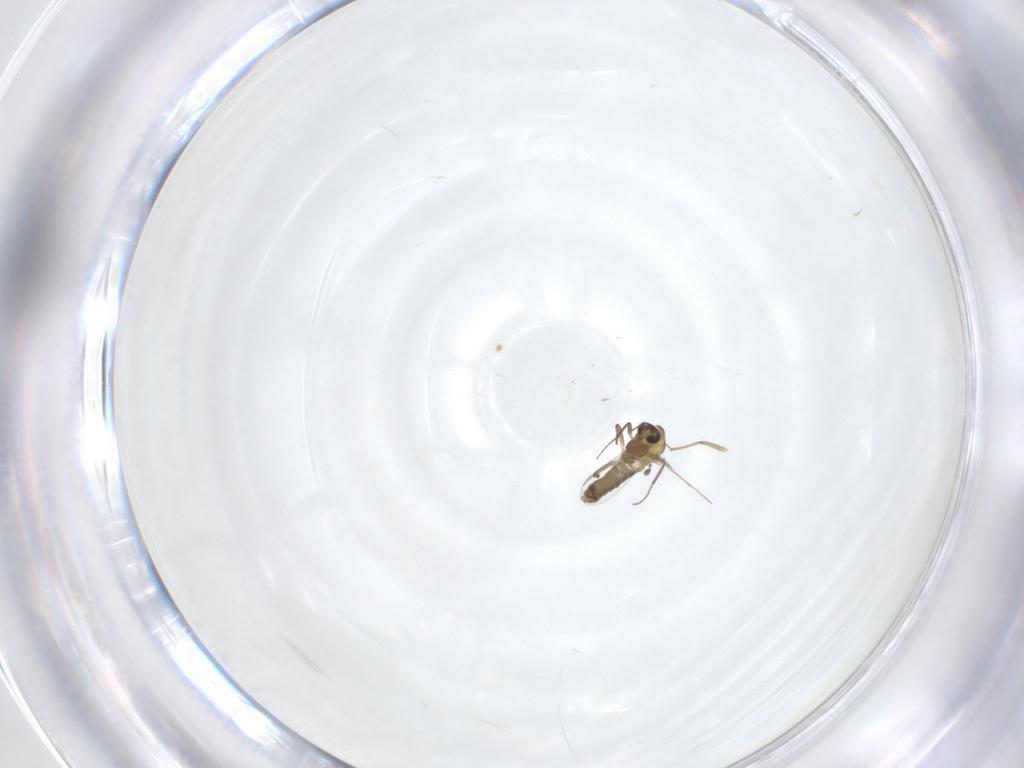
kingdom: Animalia
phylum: Arthropoda
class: Insecta
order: Diptera
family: Chironomidae
